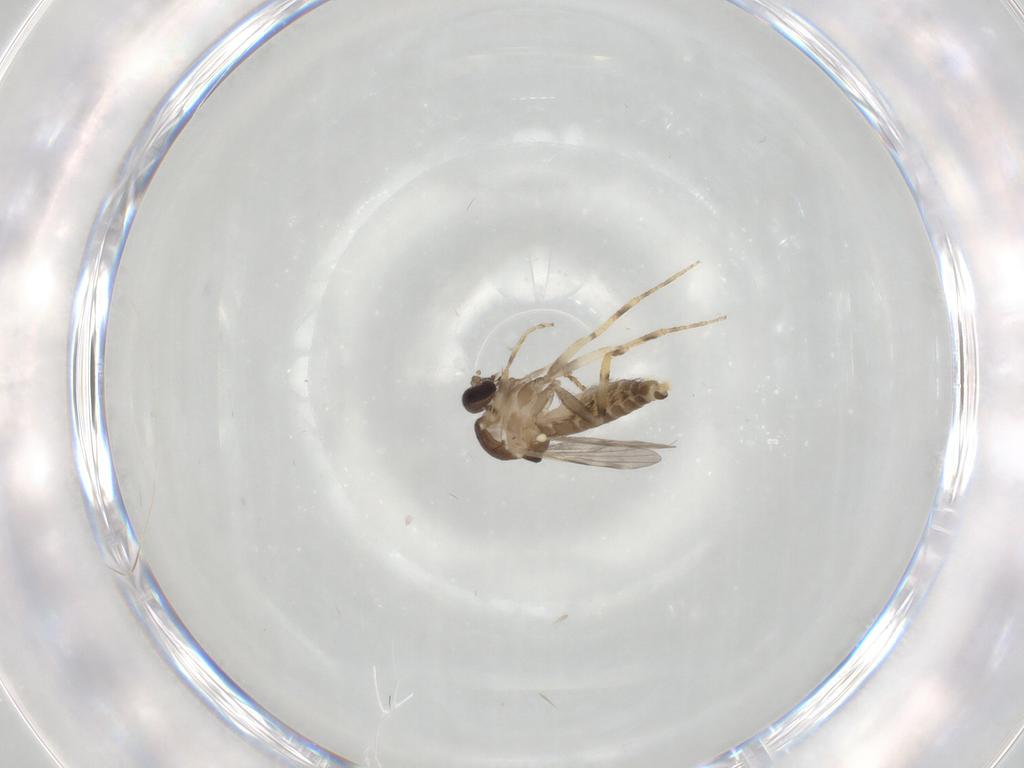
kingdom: Animalia
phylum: Arthropoda
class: Insecta
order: Diptera
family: Ceratopogonidae
